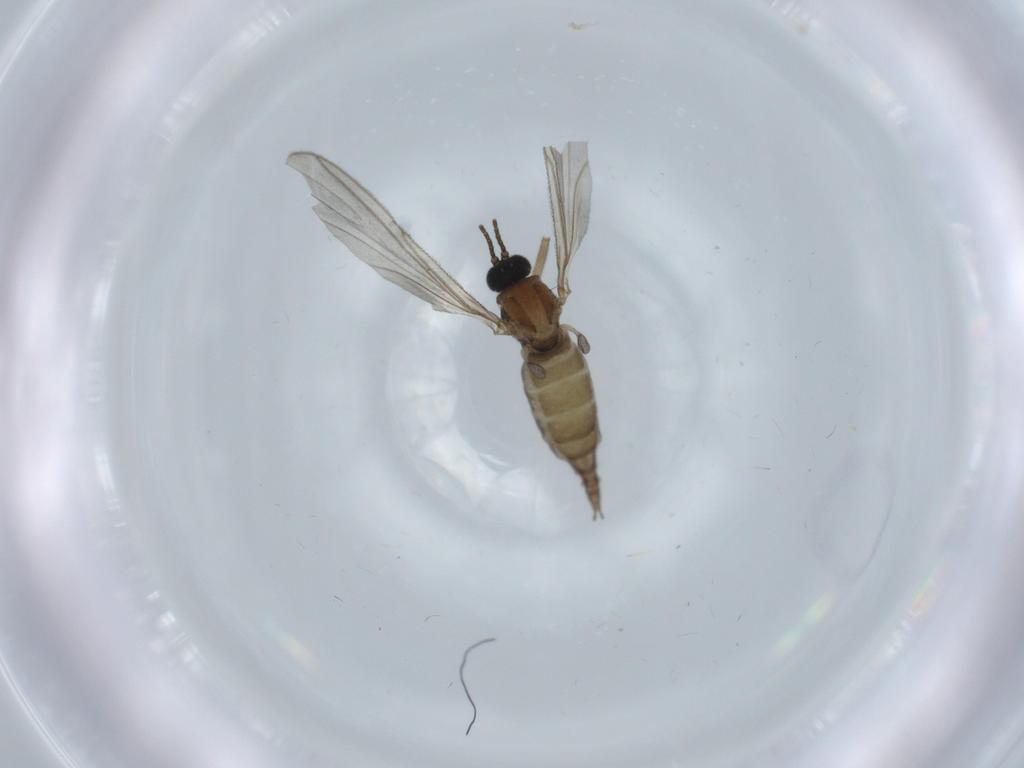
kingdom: Animalia
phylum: Arthropoda
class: Insecta
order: Diptera
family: Sciaridae
